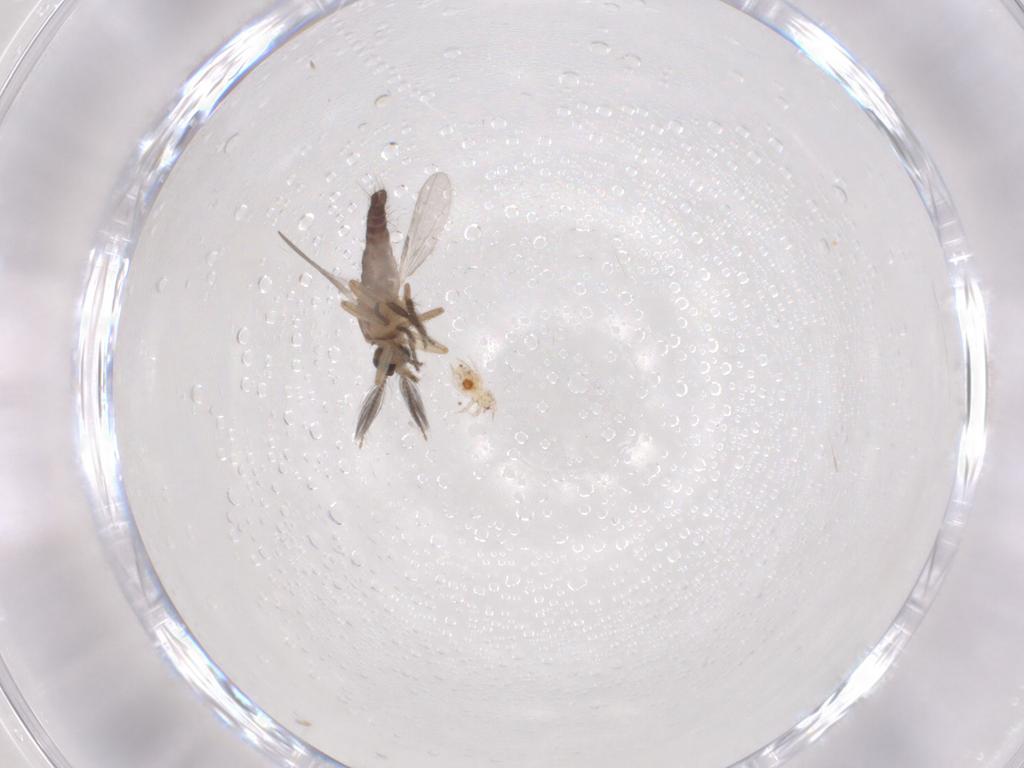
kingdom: Animalia
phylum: Arthropoda
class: Insecta
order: Diptera
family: Ceratopogonidae
